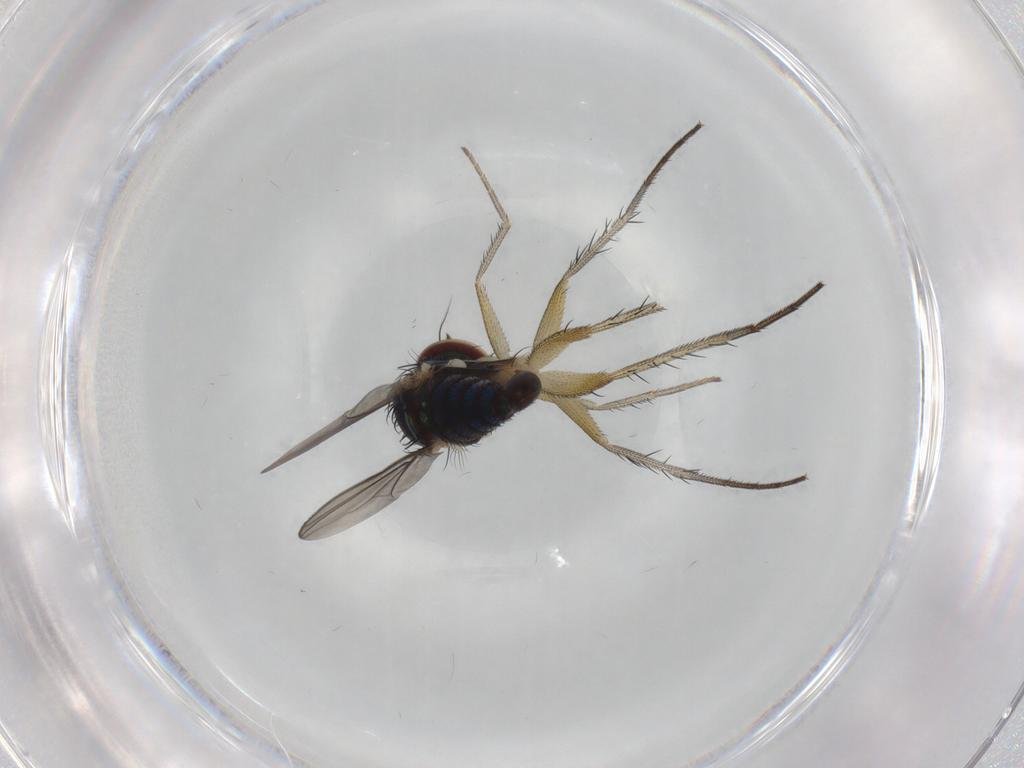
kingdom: Animalia
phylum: Arthropoda
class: Insecta
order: Diptera
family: Dolichopodidae
